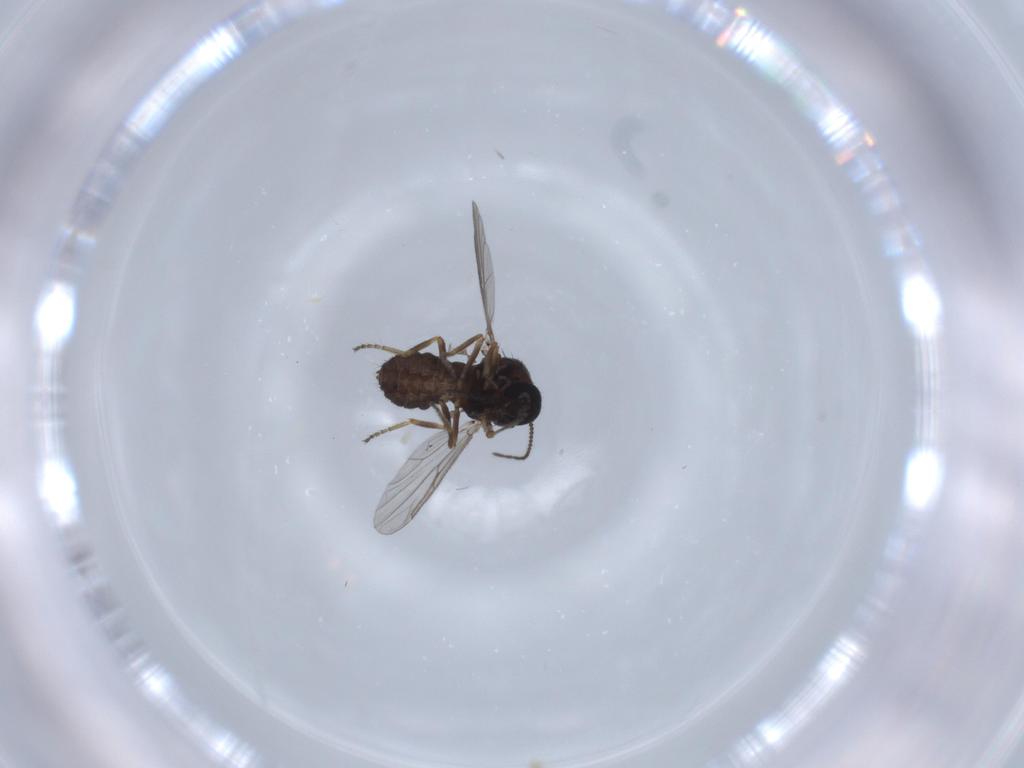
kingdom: Animalia
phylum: Arthropoda
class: Insecta
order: Diptera
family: Ceratopogonidae
